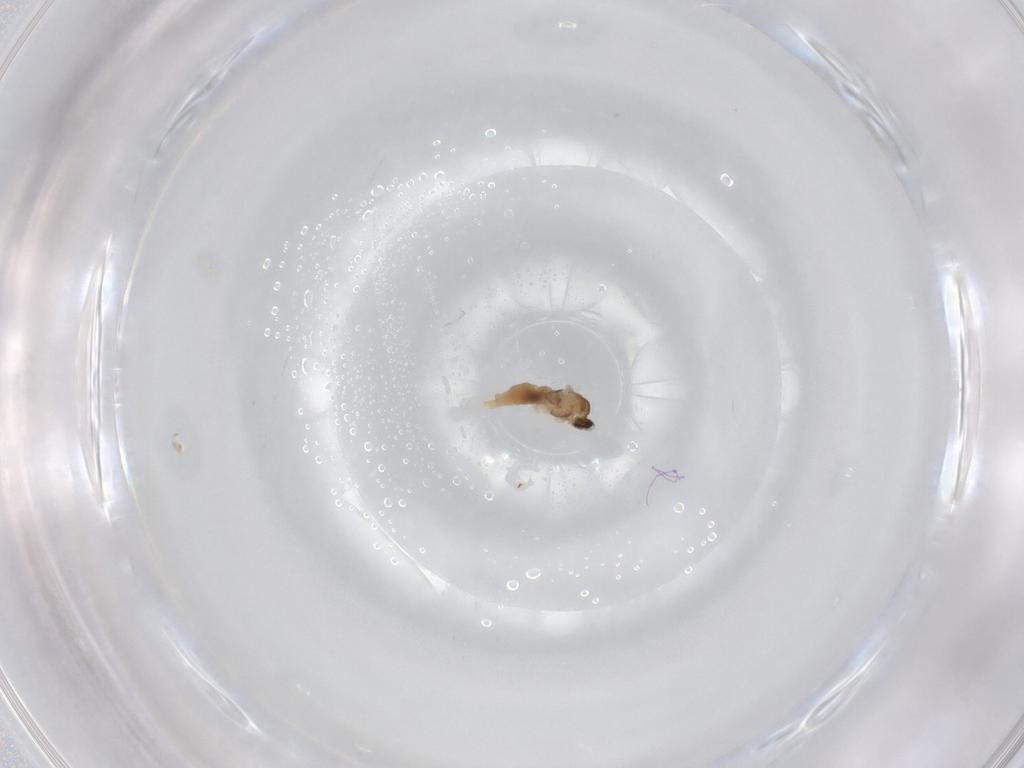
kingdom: Animalia
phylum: Arthropoda
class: Insecta
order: Diptera
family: Cecidomyiidae
